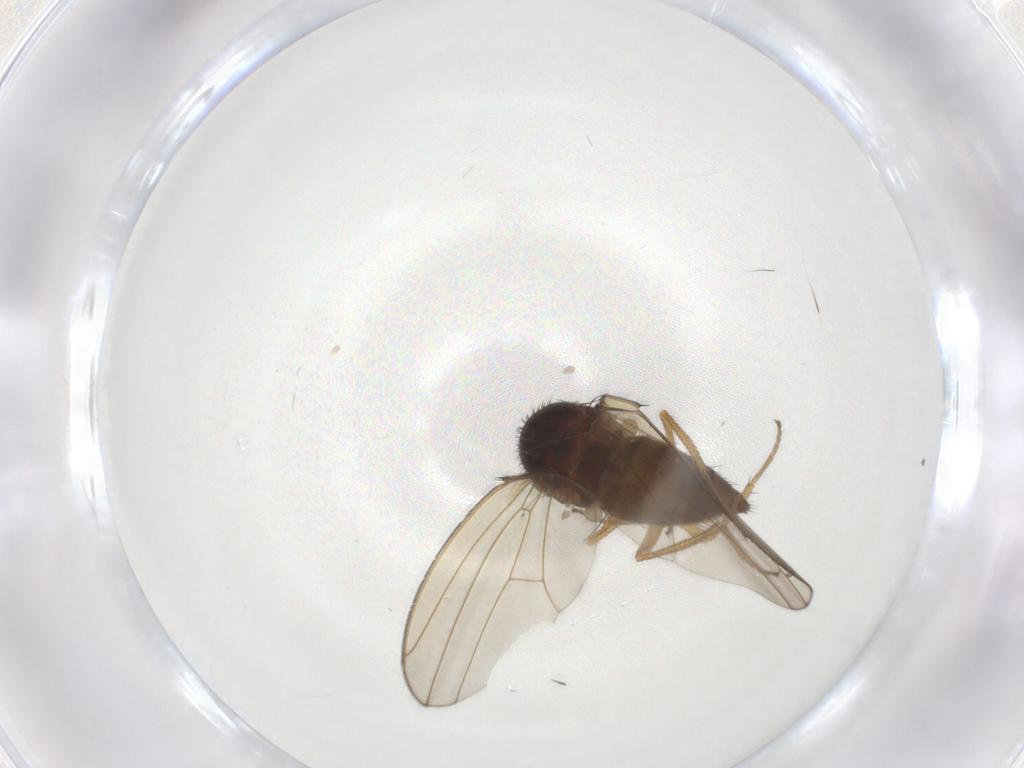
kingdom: Animalia
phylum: Arthropoda
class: Insecta
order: Diptera
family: Drosophilidae
